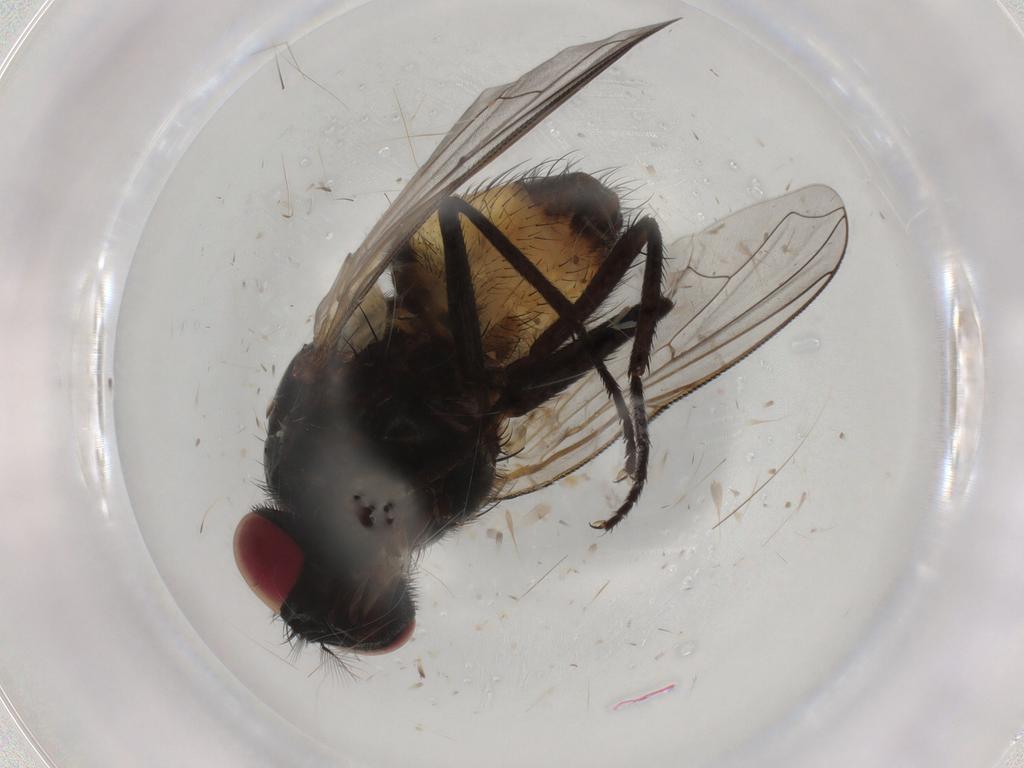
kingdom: Animalia
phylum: Arthropoda
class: Insecta
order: Diptera
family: Muscidae
